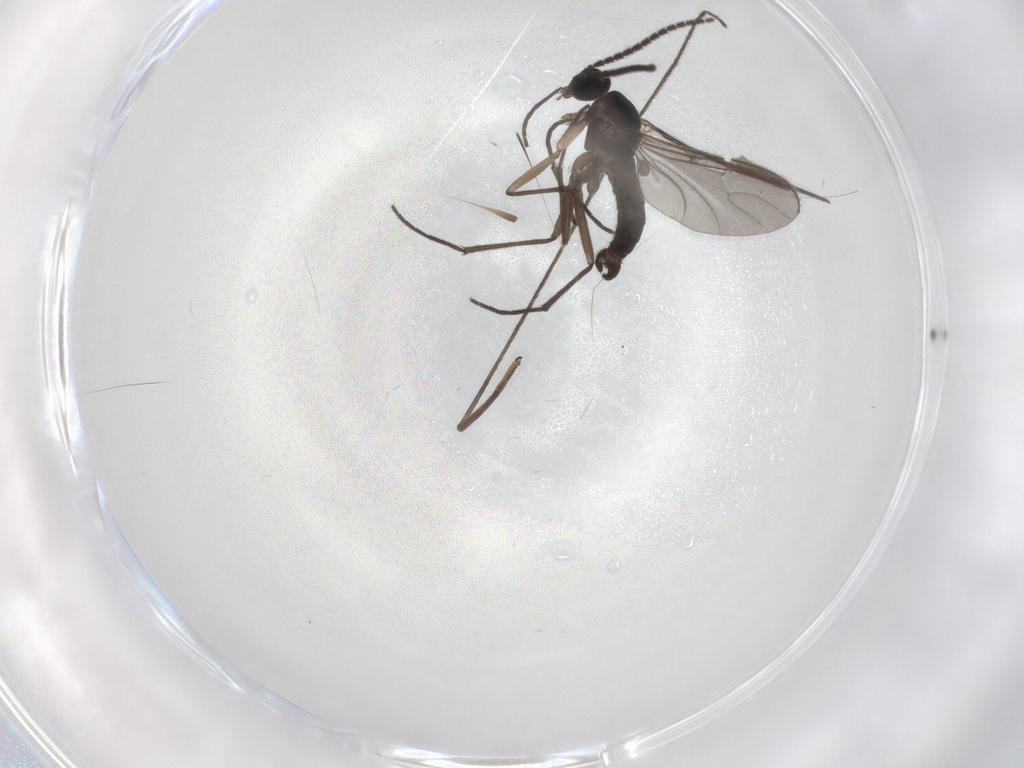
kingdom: Animalia
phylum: Arthropoda
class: Insecta
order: Diptera
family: Sciaridae
